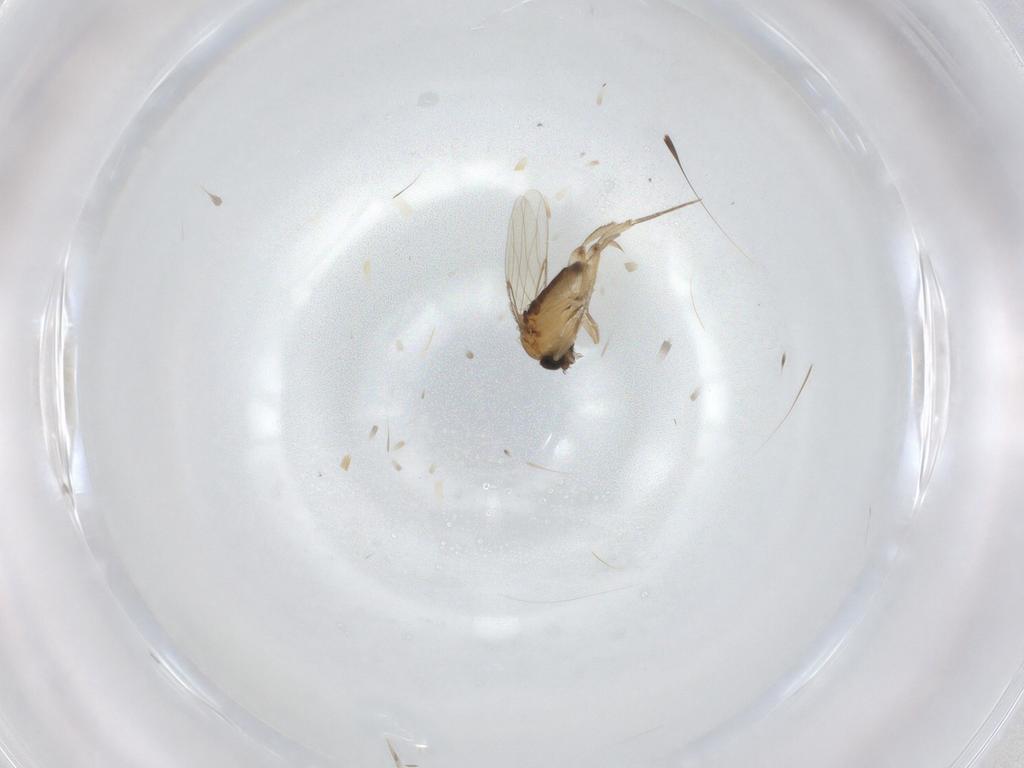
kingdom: Animalia
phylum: Arthropoda
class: Insecta
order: Diptera
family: Phoridae
